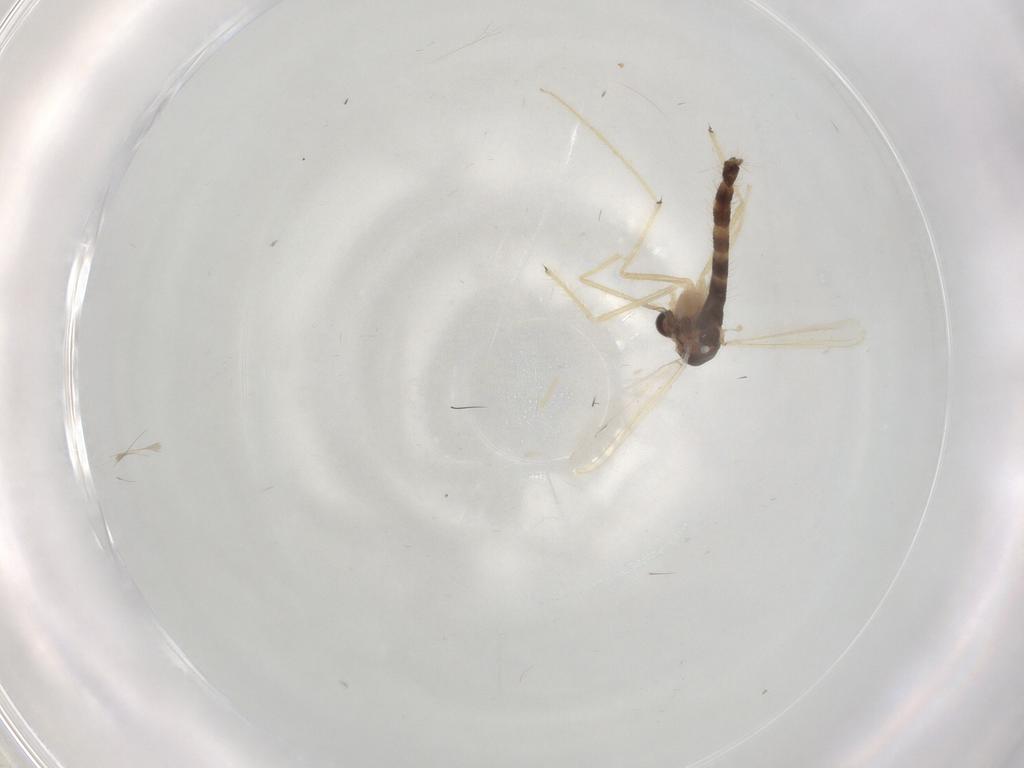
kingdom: Animalia
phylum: Arthropoda
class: Insecta
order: Diptera
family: Chironomidae
